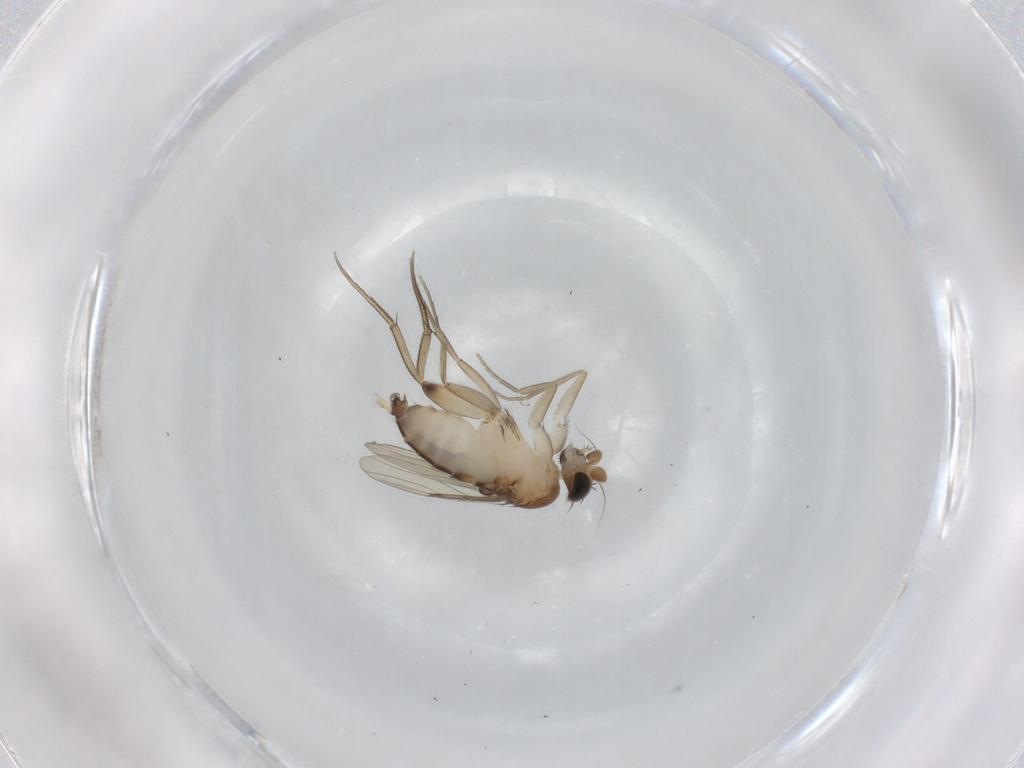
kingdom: Animalia
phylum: Arthropoda
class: Insecta
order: Diptera
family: Phoridae
